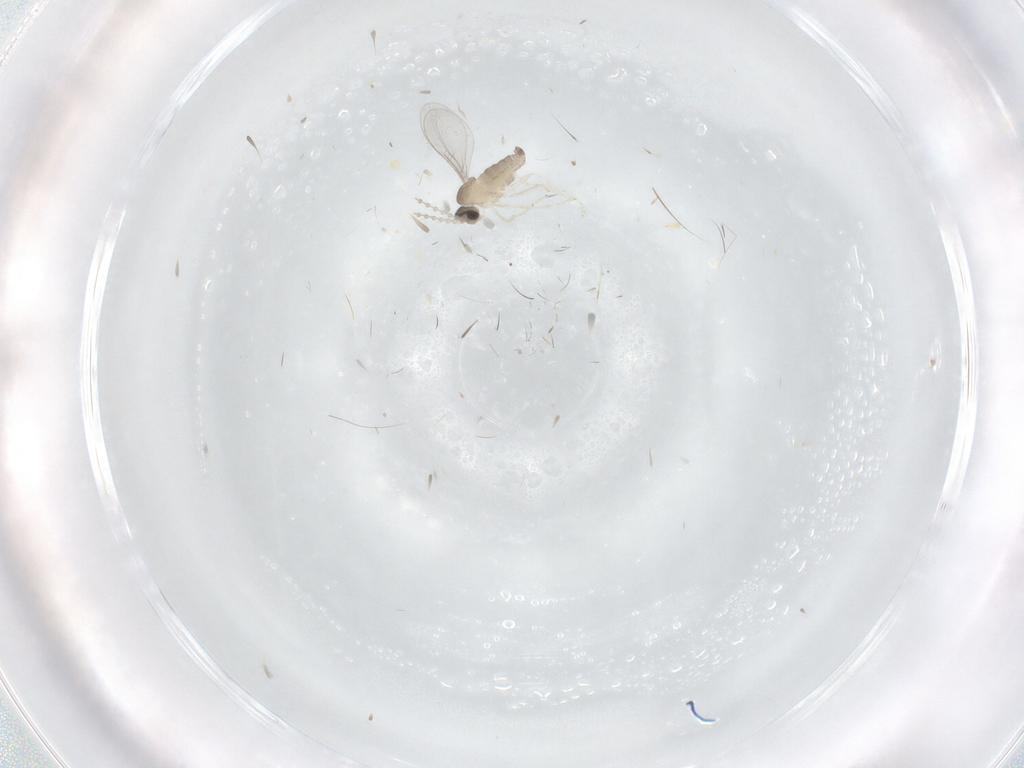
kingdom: Animalia
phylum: Arthropoda
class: Insecta
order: Diptera
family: Cecidomyiidae
